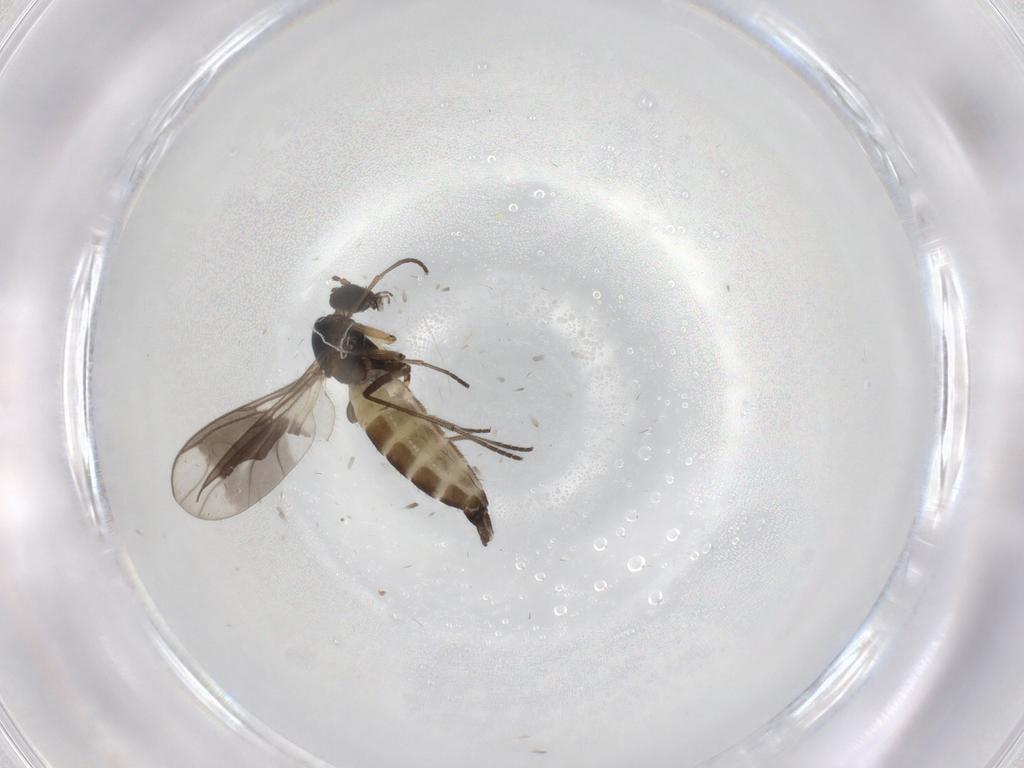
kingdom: Animalia
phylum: Arthropoda
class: Insecta
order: Diptera
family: Sciaridae
